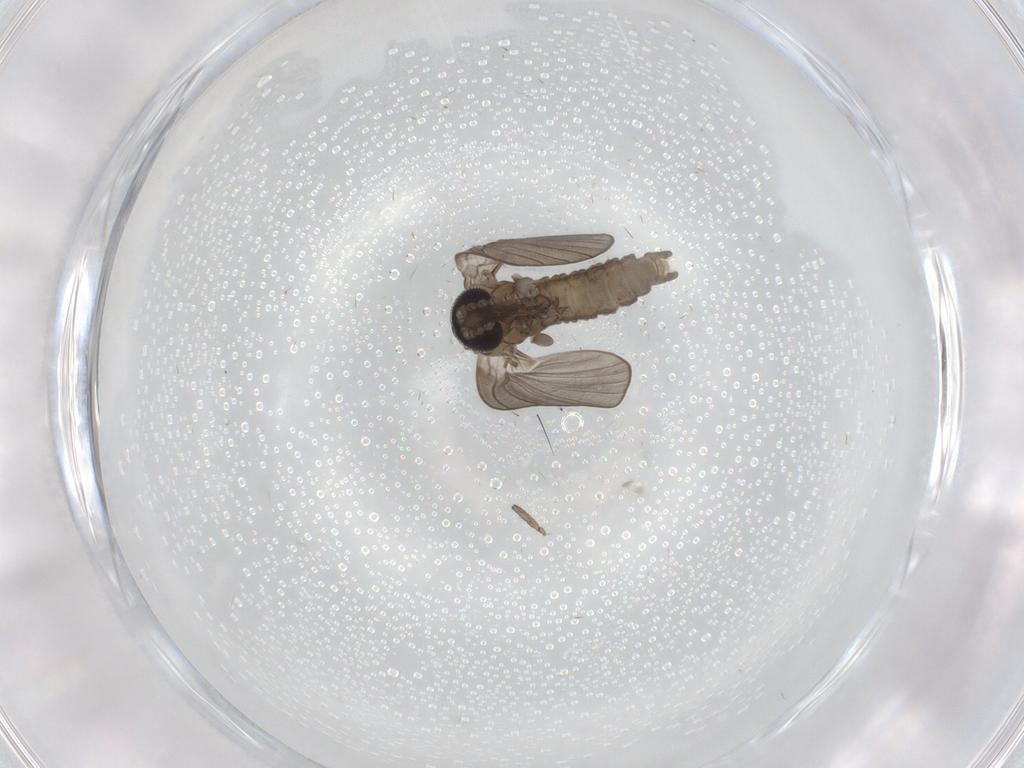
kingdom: Animalia
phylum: Arthropoda
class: Insecta
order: Diptera
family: Cecidomyiidae
